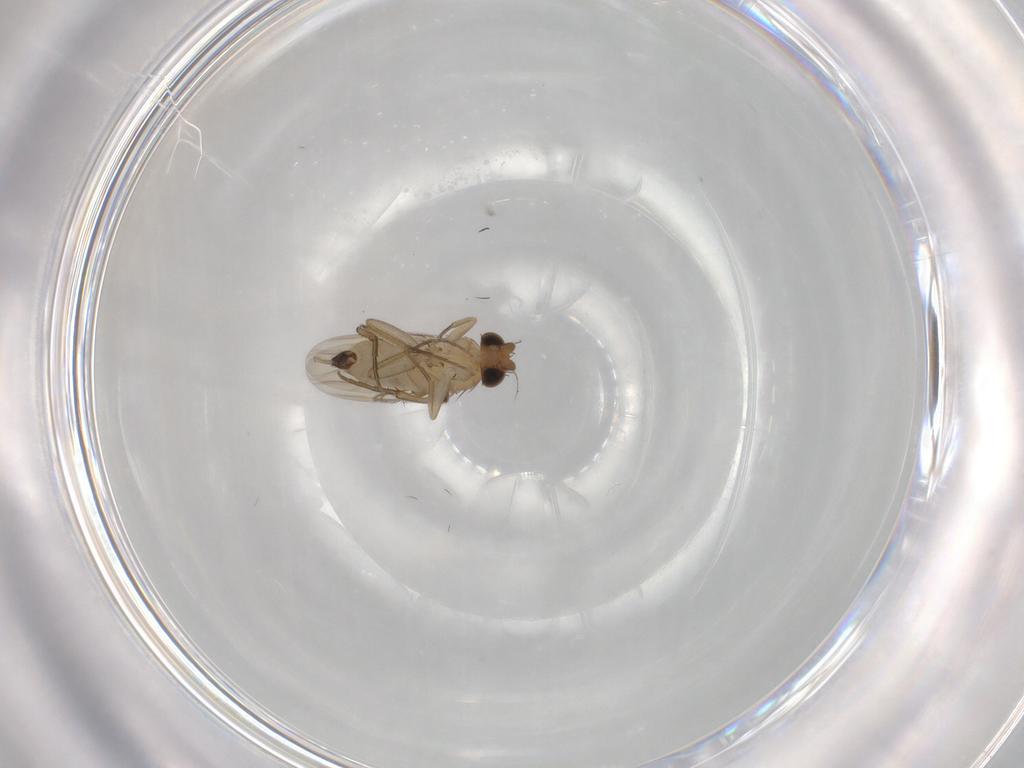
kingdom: Animalia
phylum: Arthropoda
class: Insecta
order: Diptera
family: Phoridae
